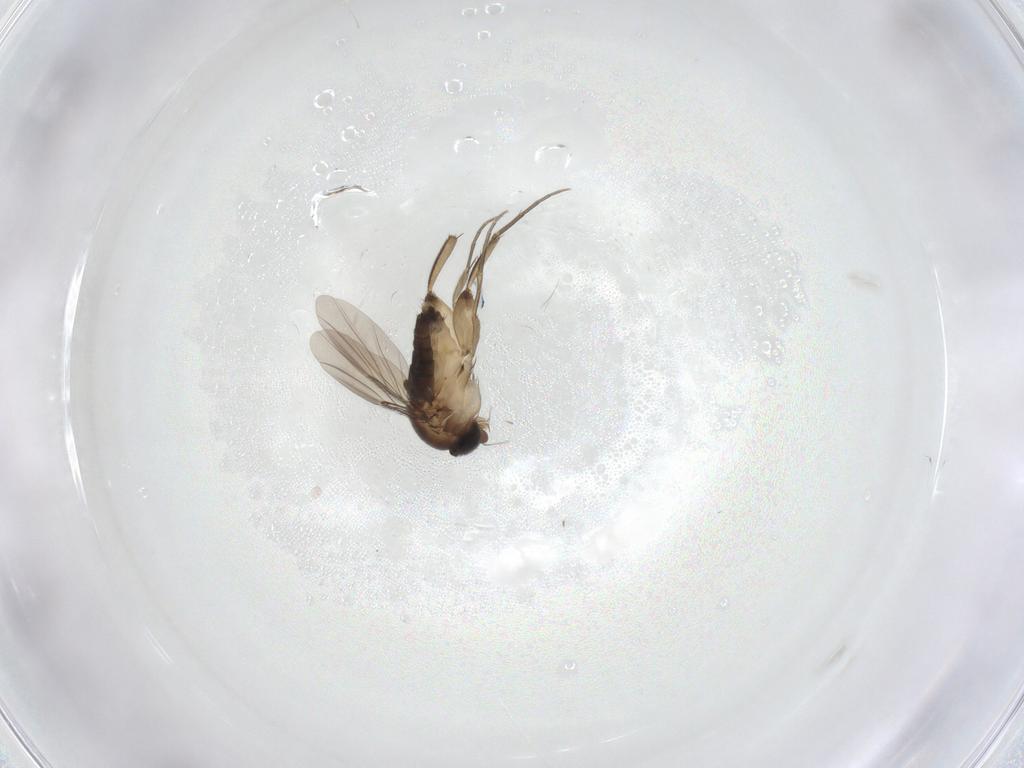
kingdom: Animalia
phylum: Arthropoda
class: Insecta
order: Diptera
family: Phoridae
